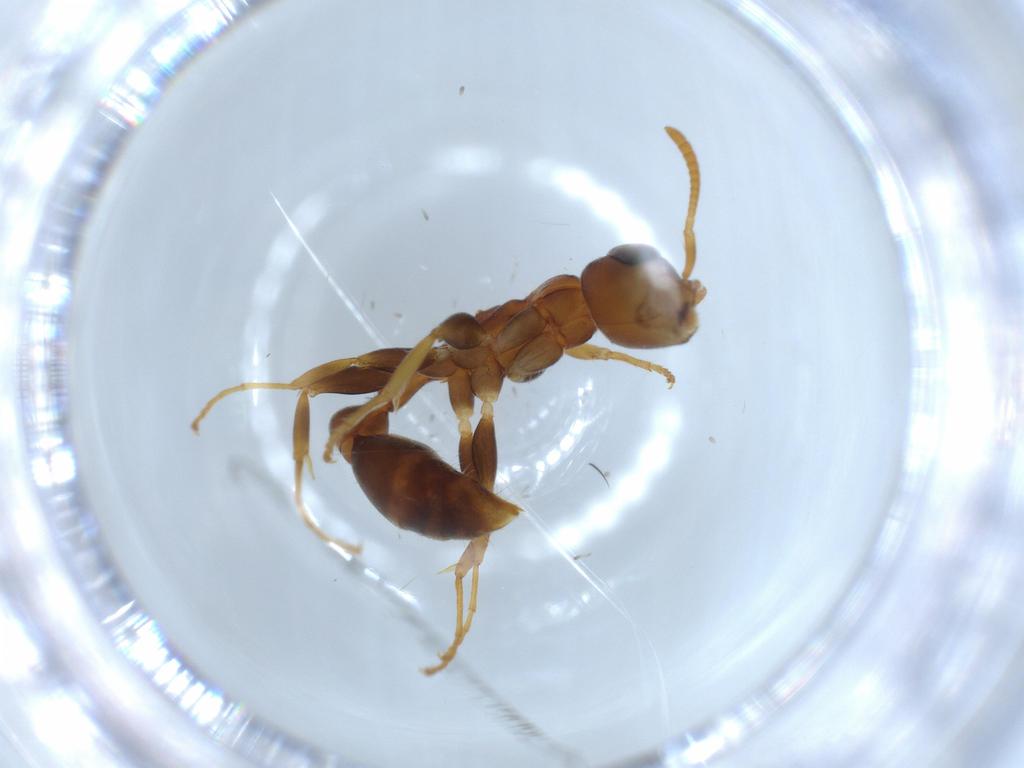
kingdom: Animalia
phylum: Arthropoda
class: Insecta
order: Hymenoptera
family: Formicidae
